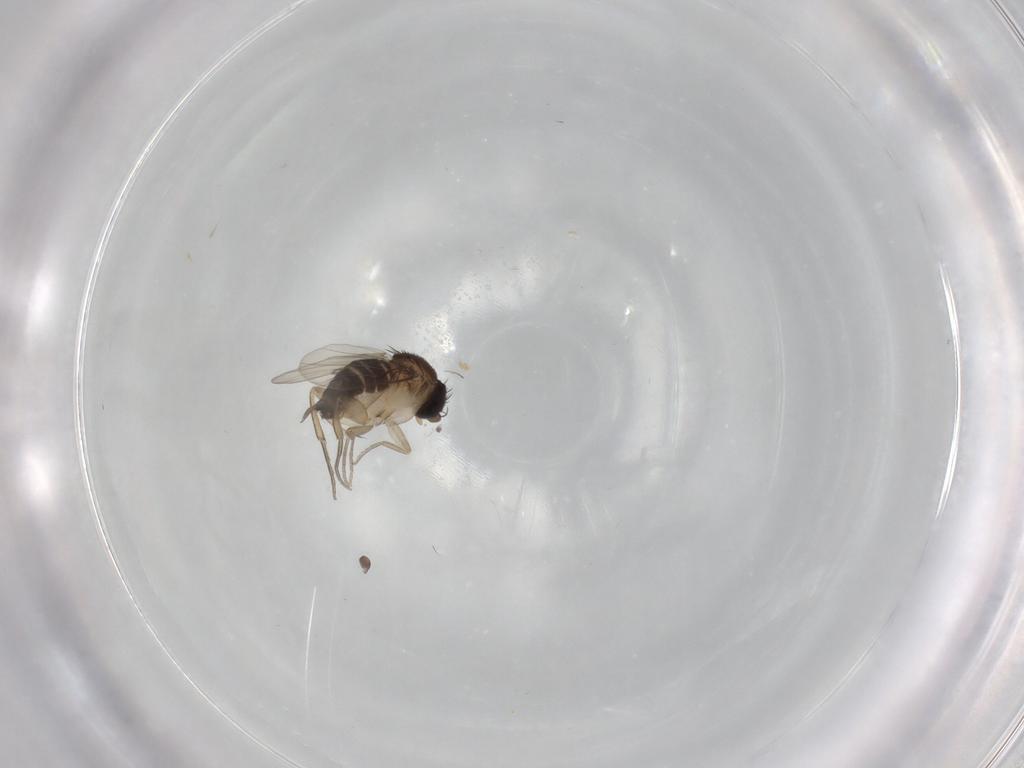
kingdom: Animalia
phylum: Arthropoda
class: Insecta
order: Diptera
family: Phoridae
